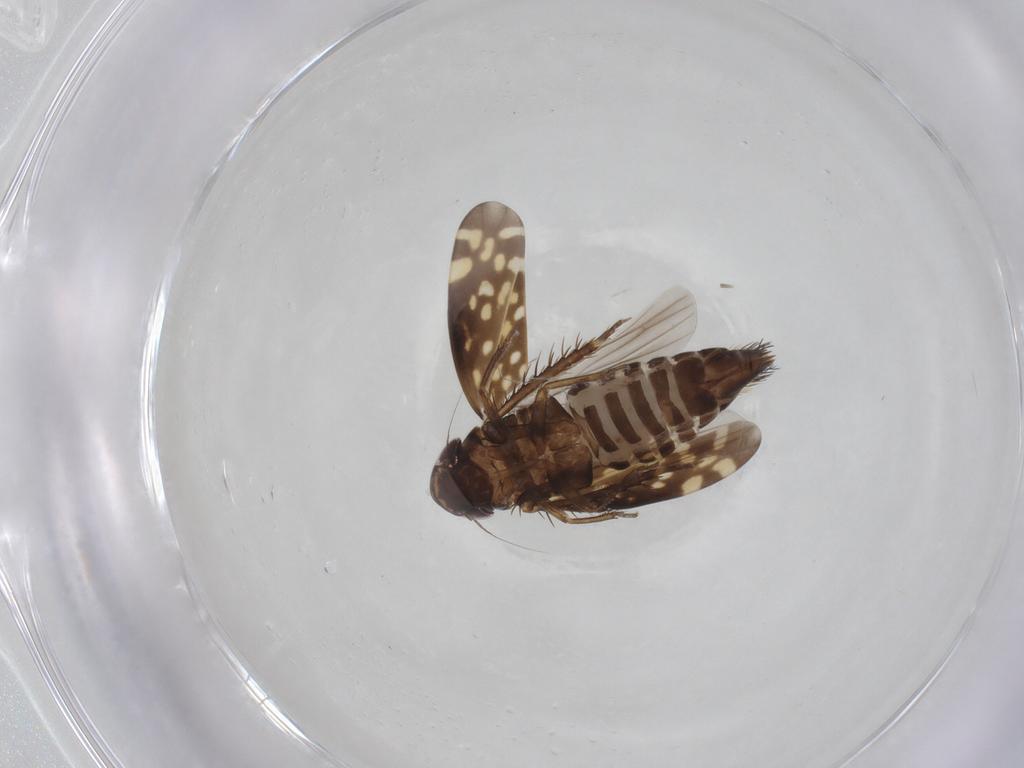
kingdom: Animalia
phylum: Arthropoda
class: Insecta
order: Hemiptera
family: Cicadellidae
